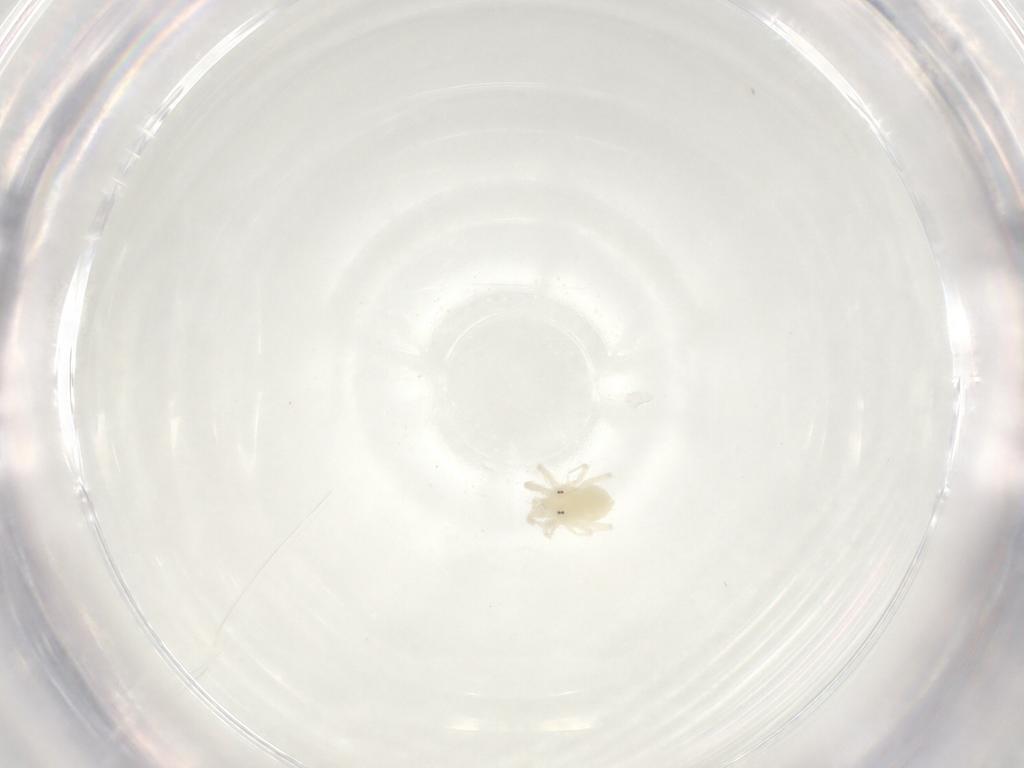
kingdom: Animalia
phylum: Arthropoda
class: Arachnida
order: Trombidiformes
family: Anystidae
